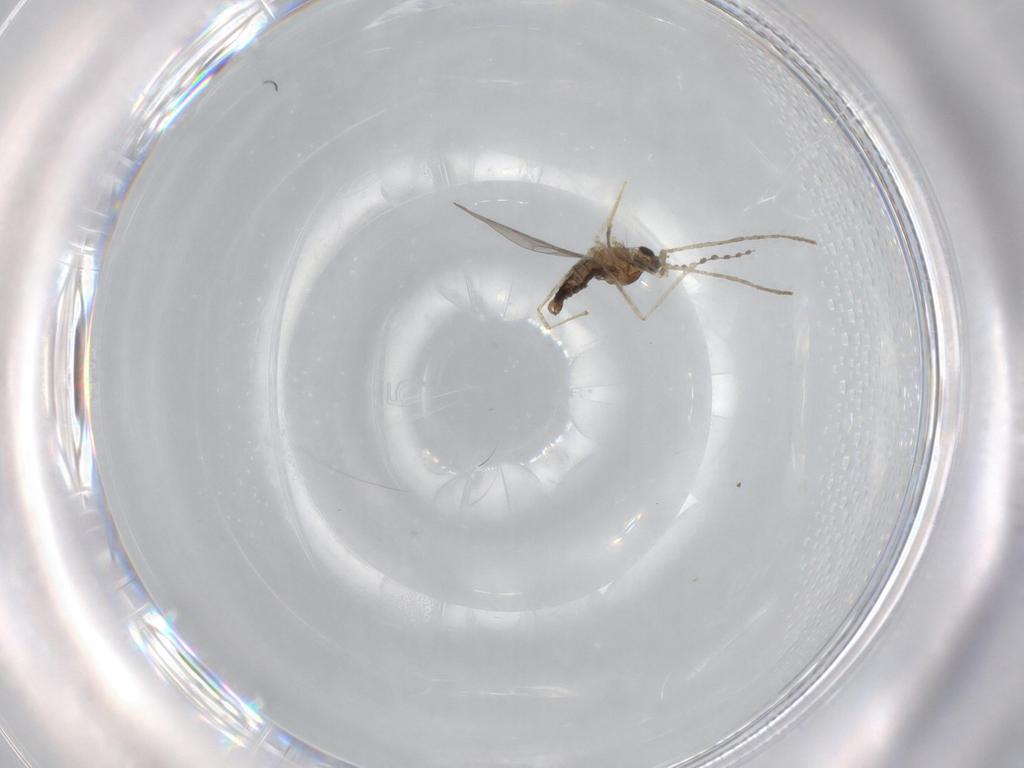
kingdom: Animalia
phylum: Arthropoda
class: Insecta
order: Diptera
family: Cecidomyiidae
